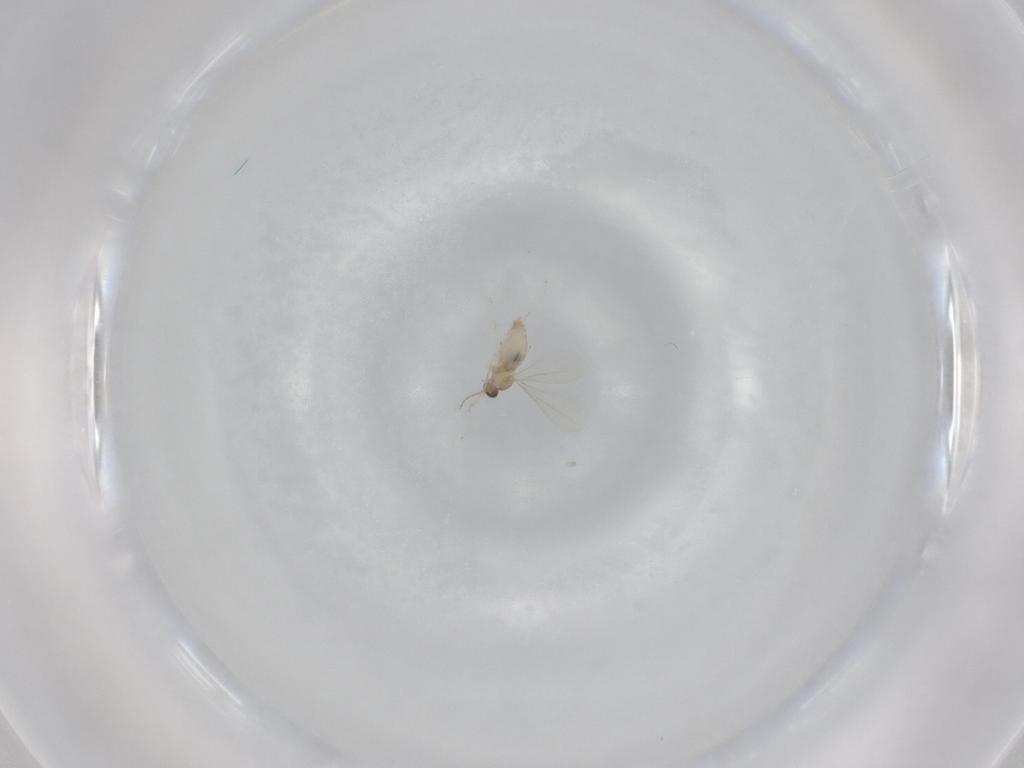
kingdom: Animalia
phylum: Arthropoda
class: Insecta
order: Diptera
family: Cecidomyiidae
